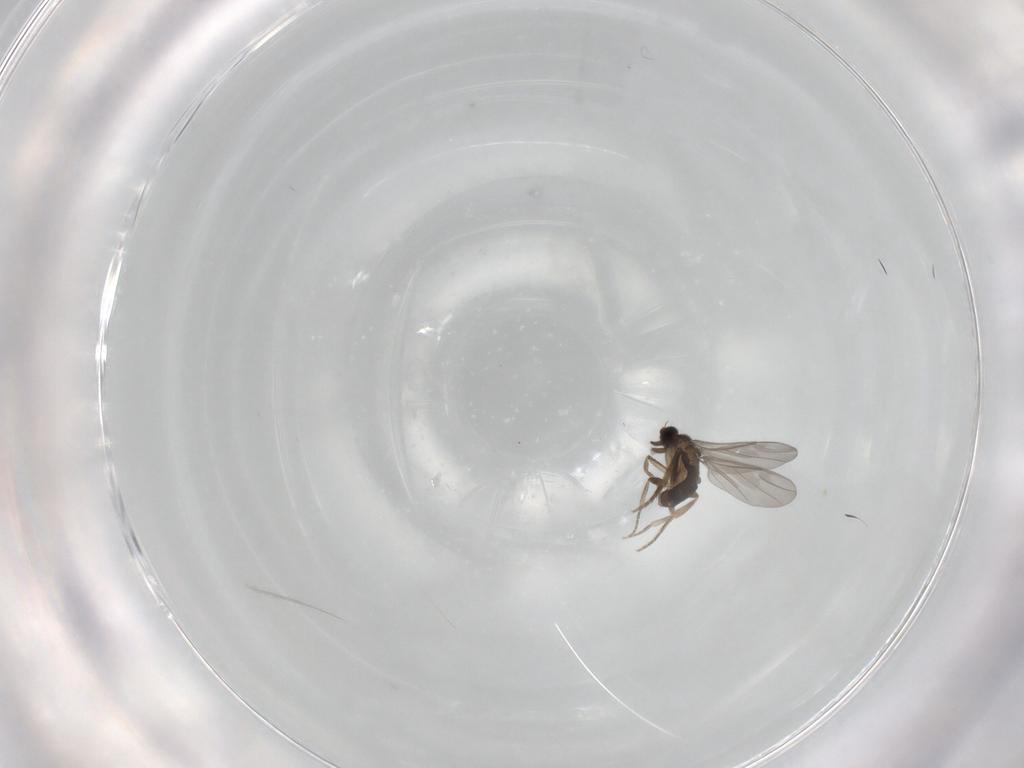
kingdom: Animalia
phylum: Arthropoda
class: Insecta
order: Diptera
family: Phoridae
